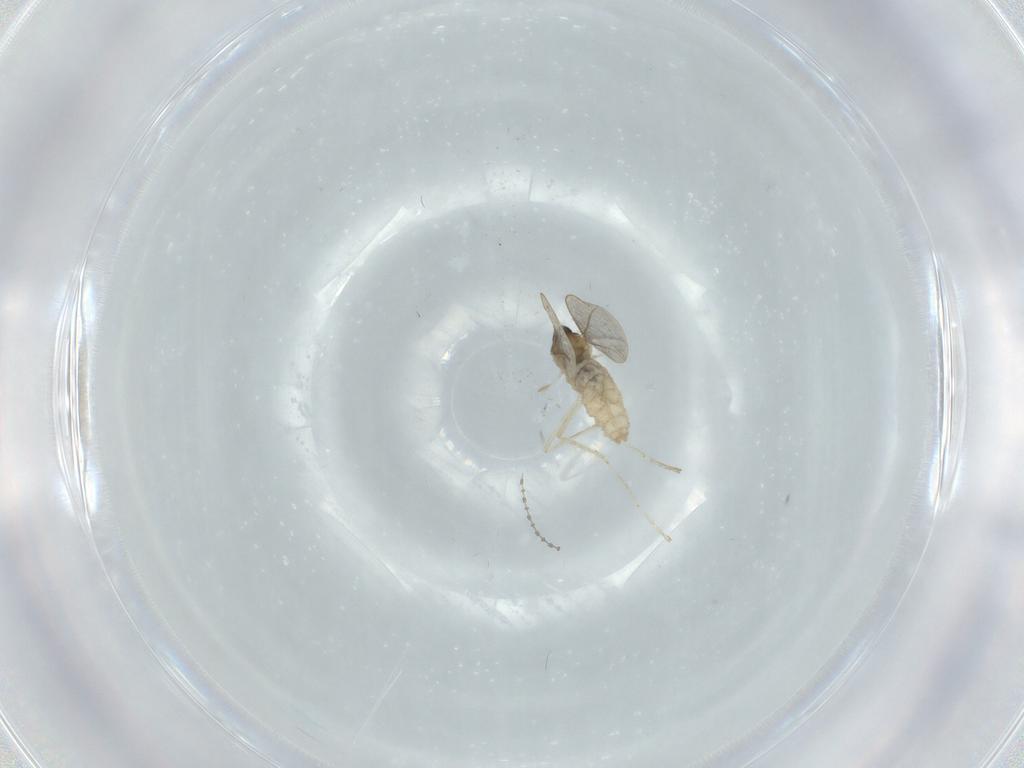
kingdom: Animalia
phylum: Arthropoda
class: Insecta
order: Diptera
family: Cecidomyiidae
